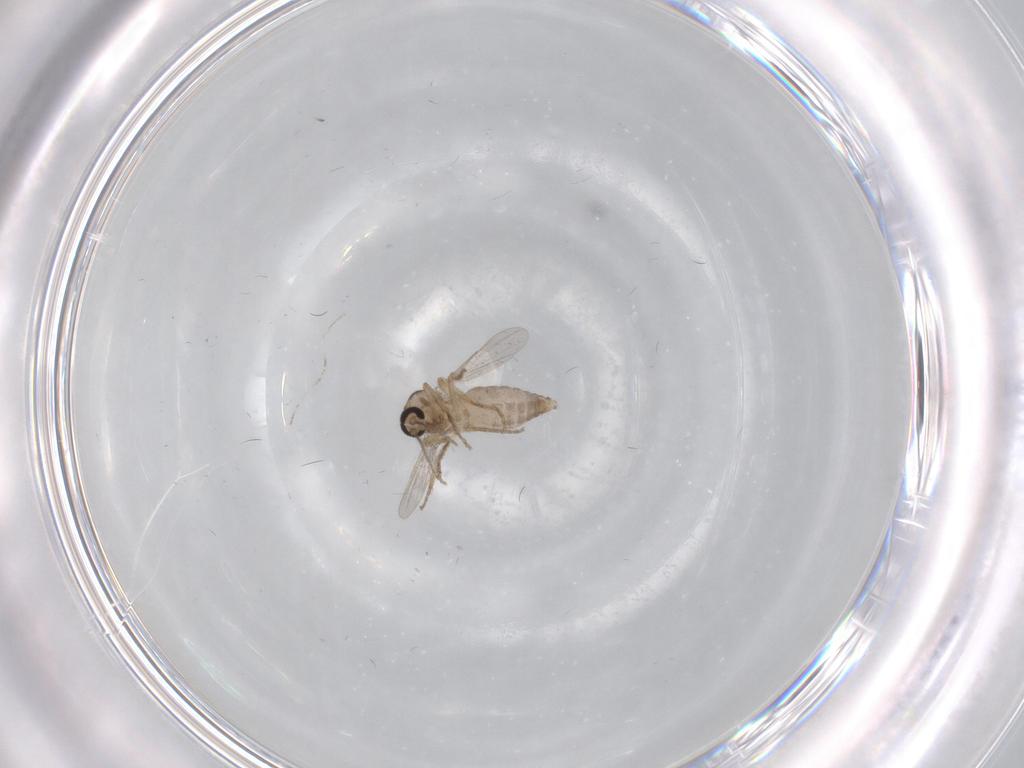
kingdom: Animalia
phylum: Arthropoda
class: Insecta
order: Diptera
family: Ceratopogonidae
